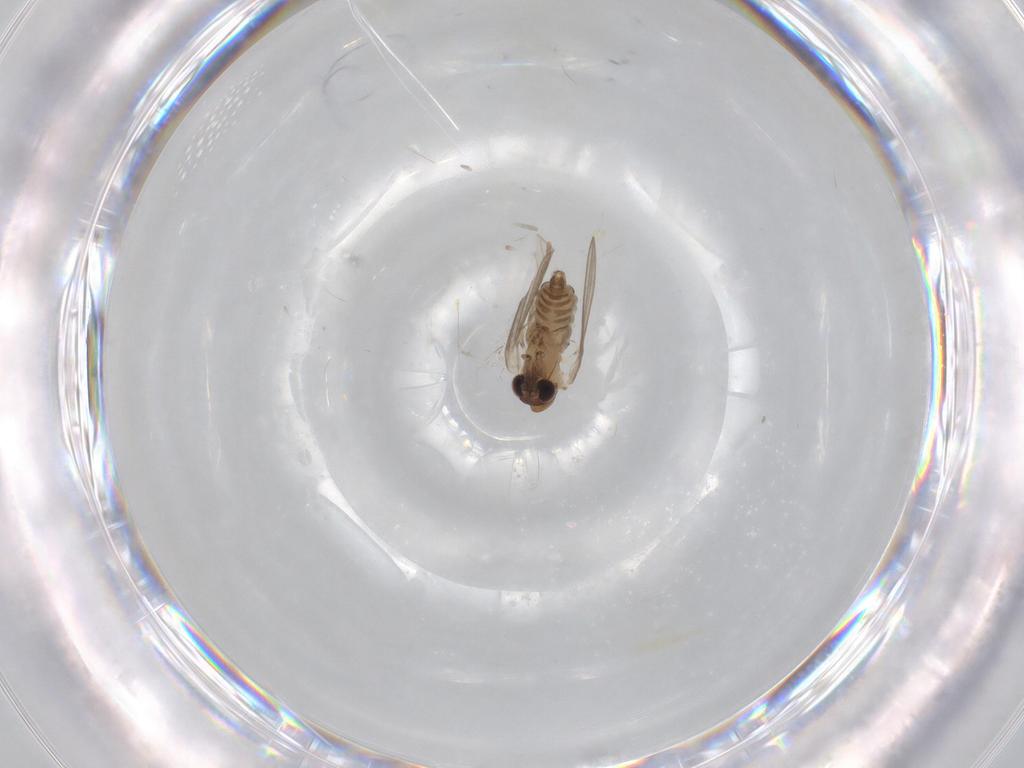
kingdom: Animalia
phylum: Arthropoda
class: Insecta
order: Diptera
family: Psychodidae
